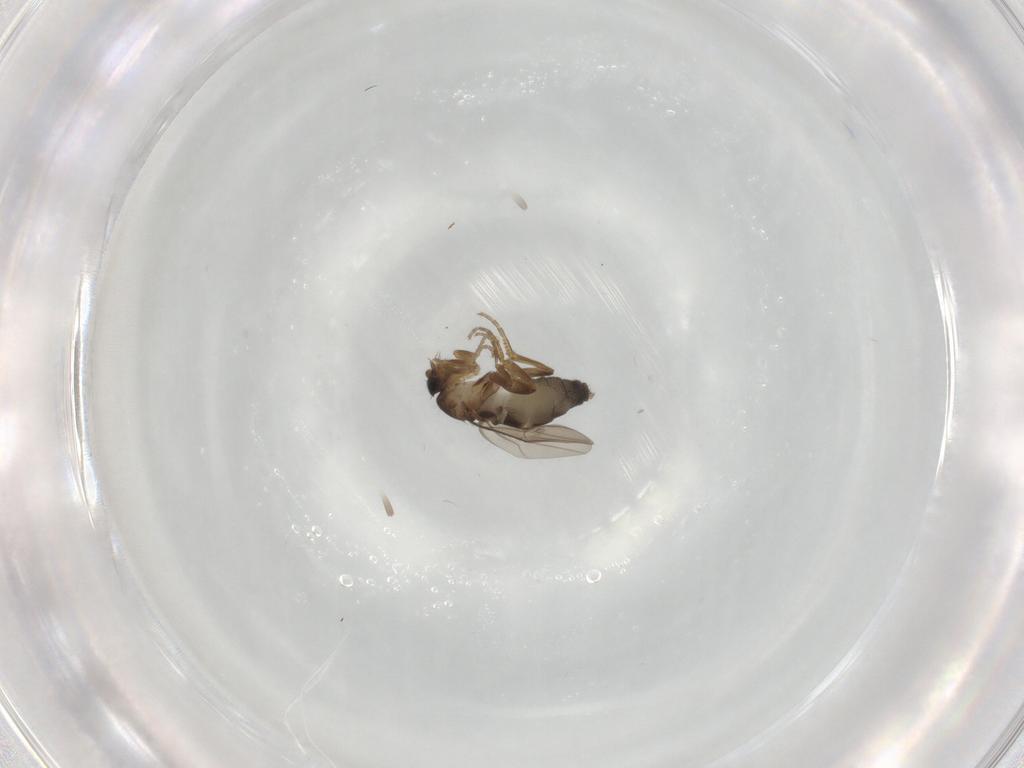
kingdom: Animalia
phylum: Arthropoda
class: Insecta
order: Diptera
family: Phoridae
